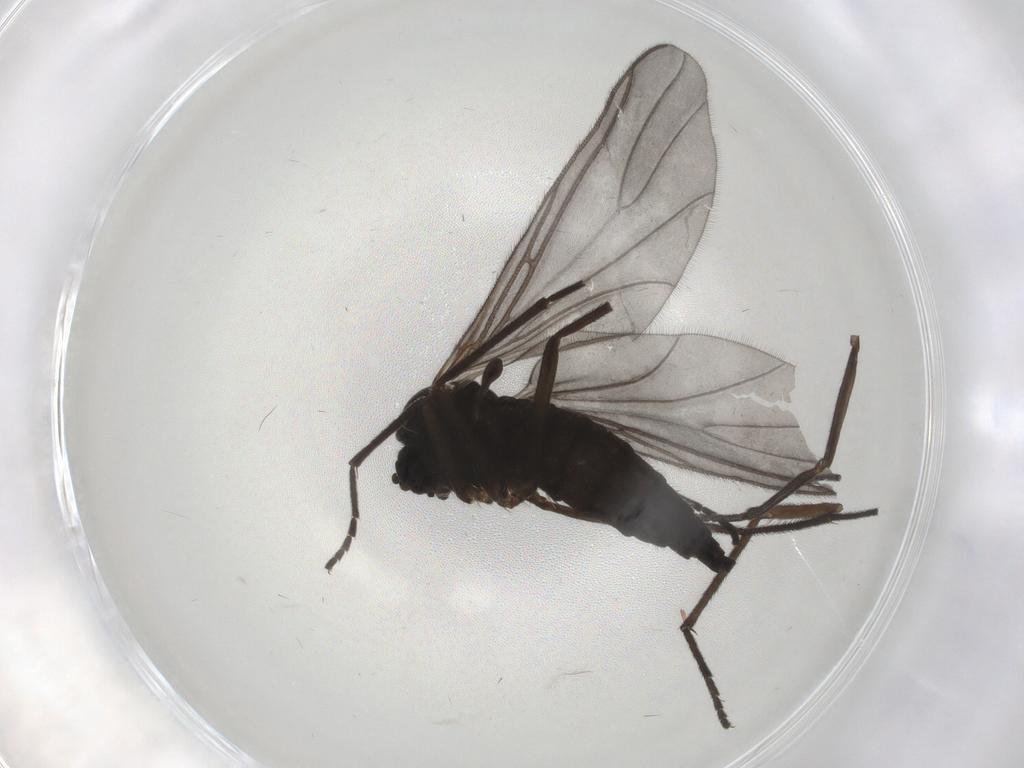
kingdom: Animalia
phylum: Arthropoda
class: Insecta
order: Diptera
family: Sciaridae
